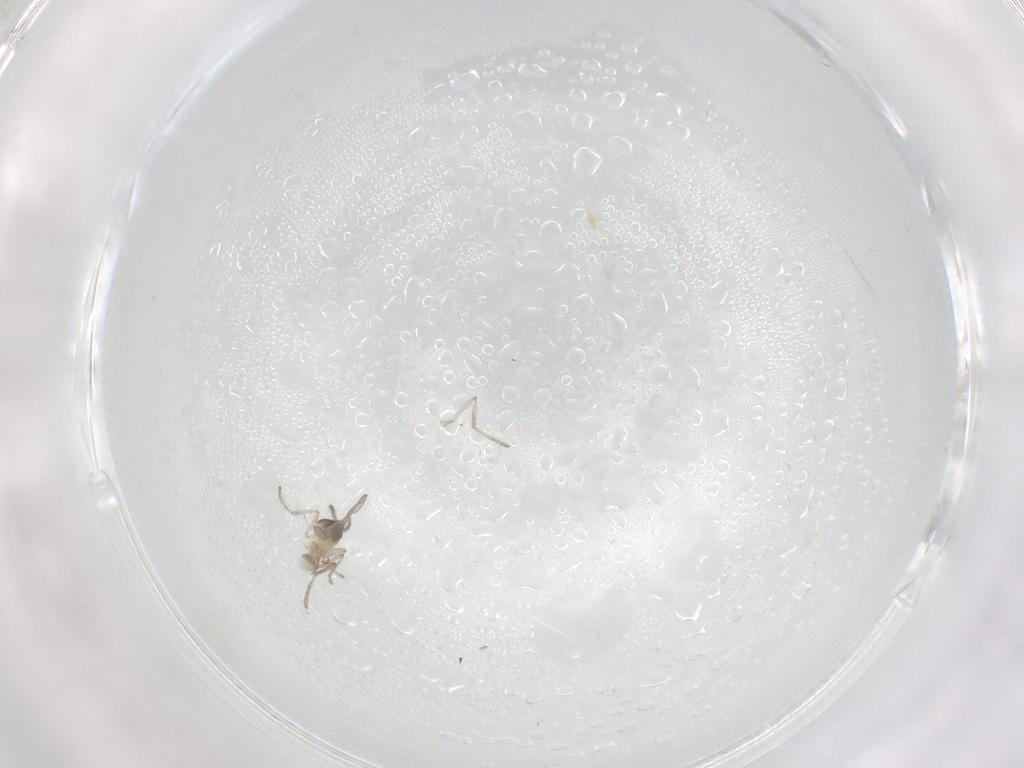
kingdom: Animalia
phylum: Arthropoda
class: Insecta
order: Diptera
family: Cecidomyiidae
